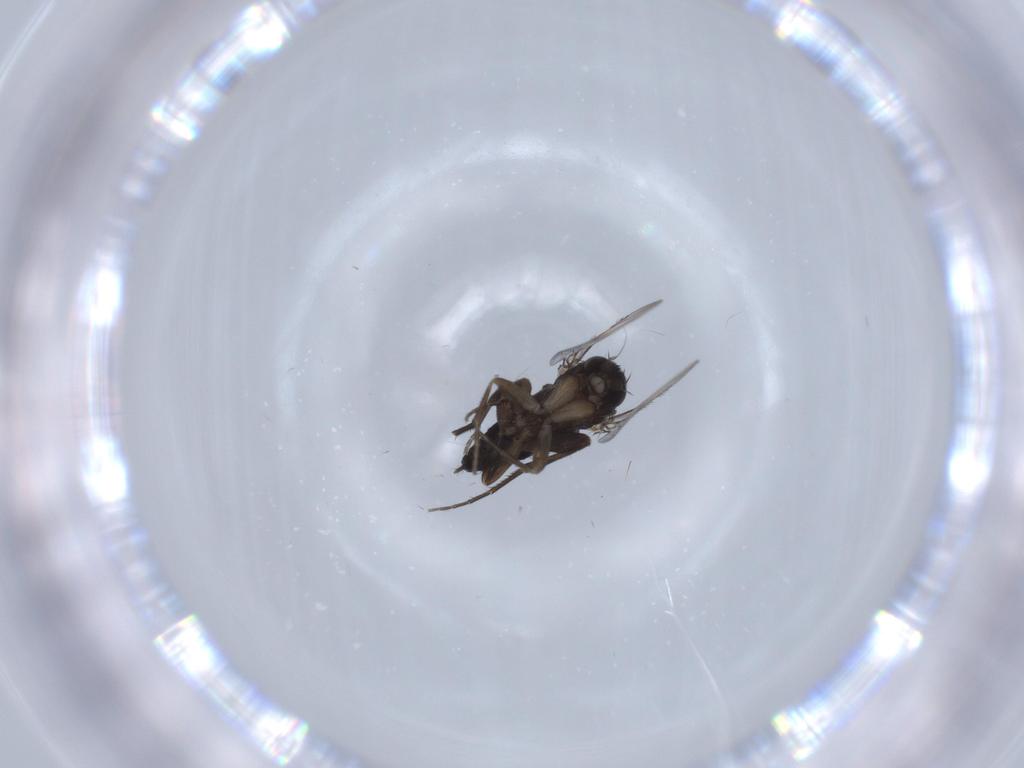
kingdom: Animalia
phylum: Arthropoda
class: Insecta
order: Diptera
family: Phoridae
